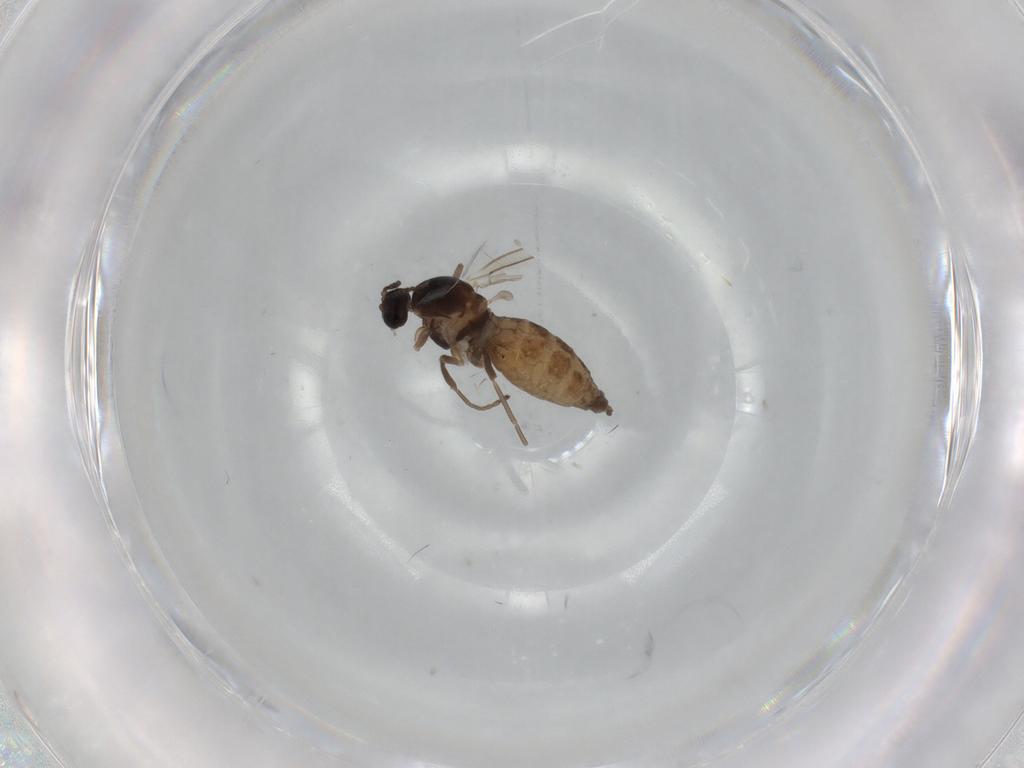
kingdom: Animalia
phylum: Arthropoda
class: Insecta
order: Diptera
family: Cecidomyiidae
